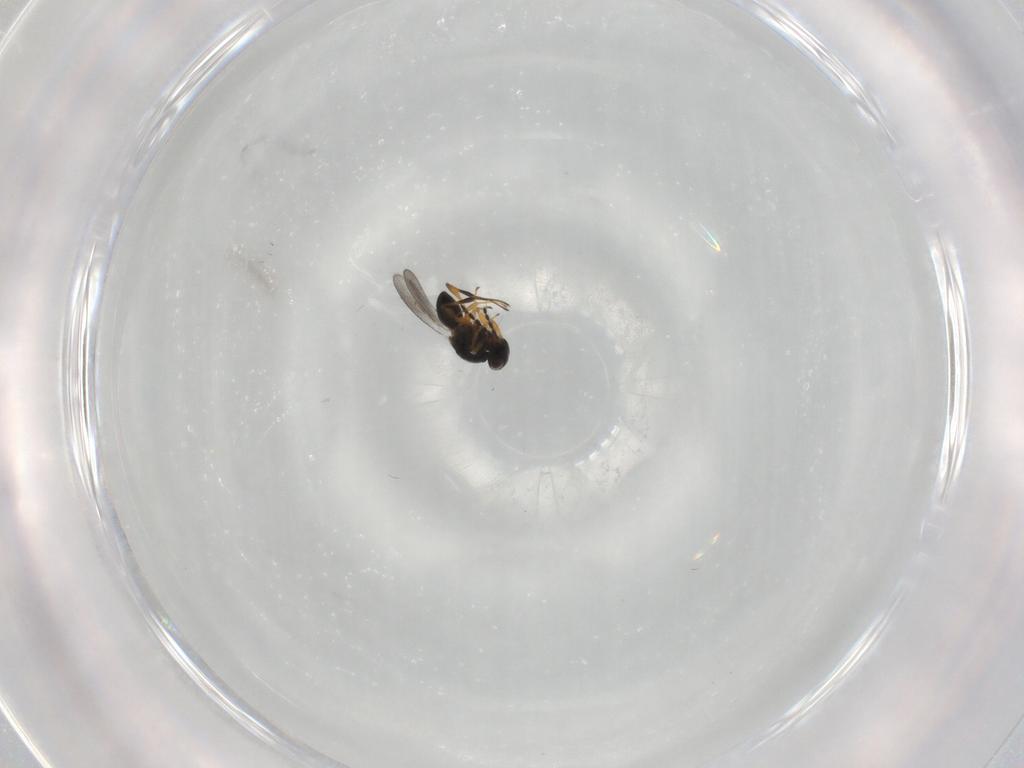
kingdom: Animalia
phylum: Arthropoda
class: Insecta
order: Hymenoptera
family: Platygastridae
